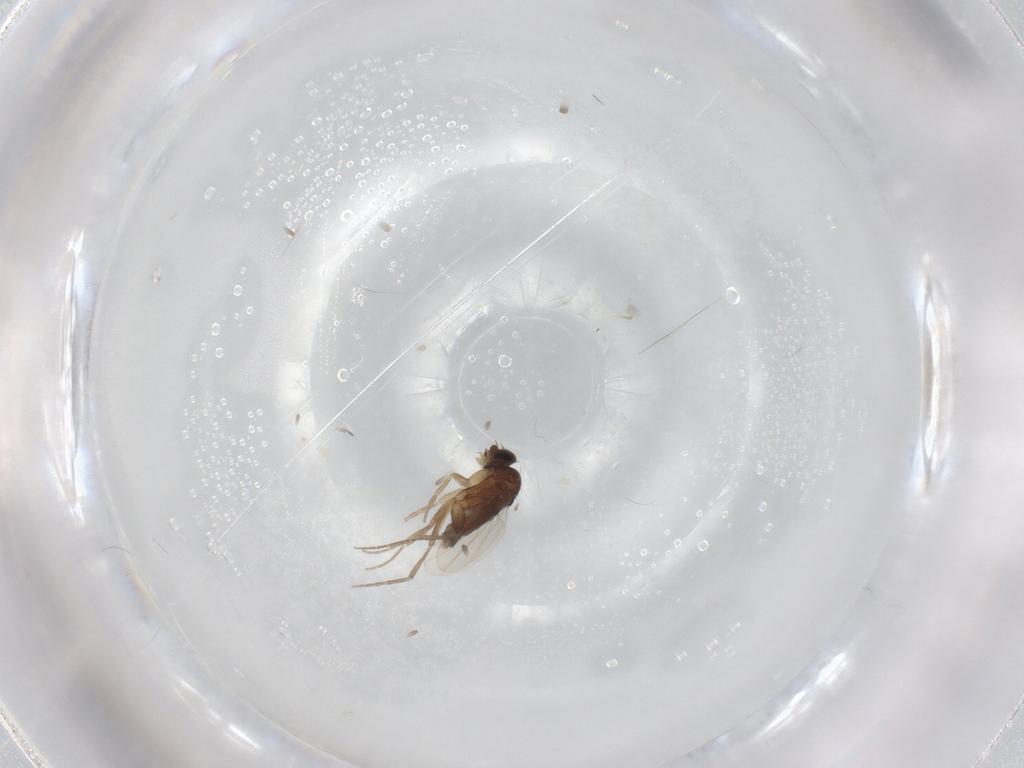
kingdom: Animalia
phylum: Arthropoda
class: Insecta
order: Diptera
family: Phoridae
